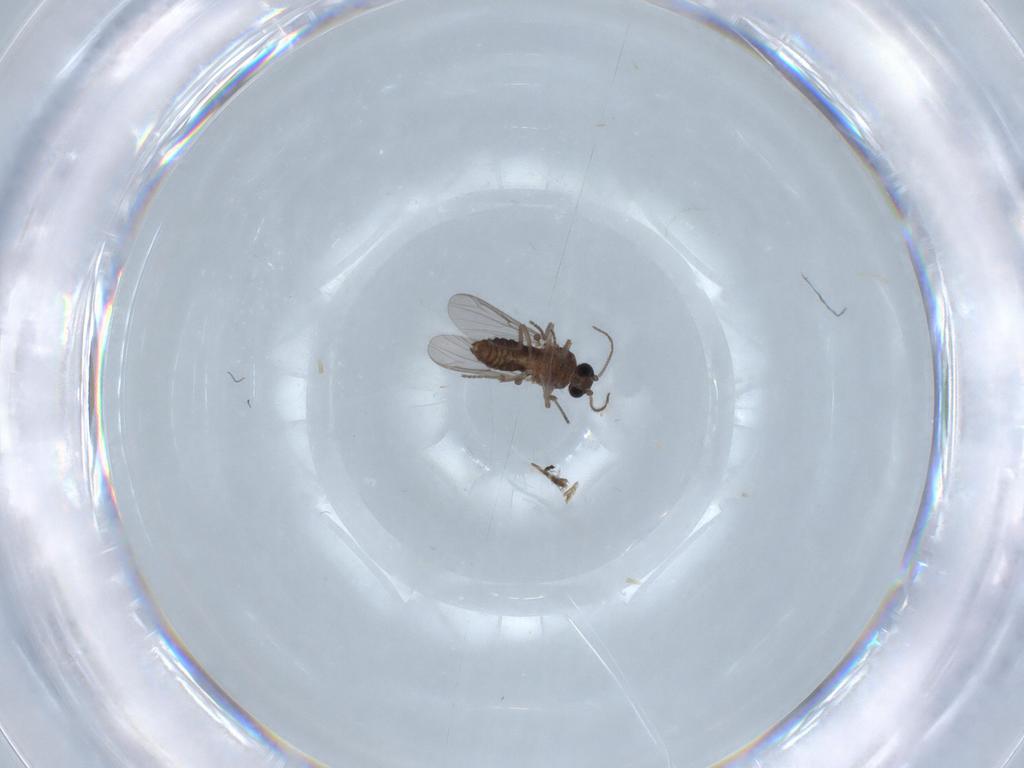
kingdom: Animalia
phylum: Arthropoda
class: Insecta
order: Diptera
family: Ceratopogonidae
